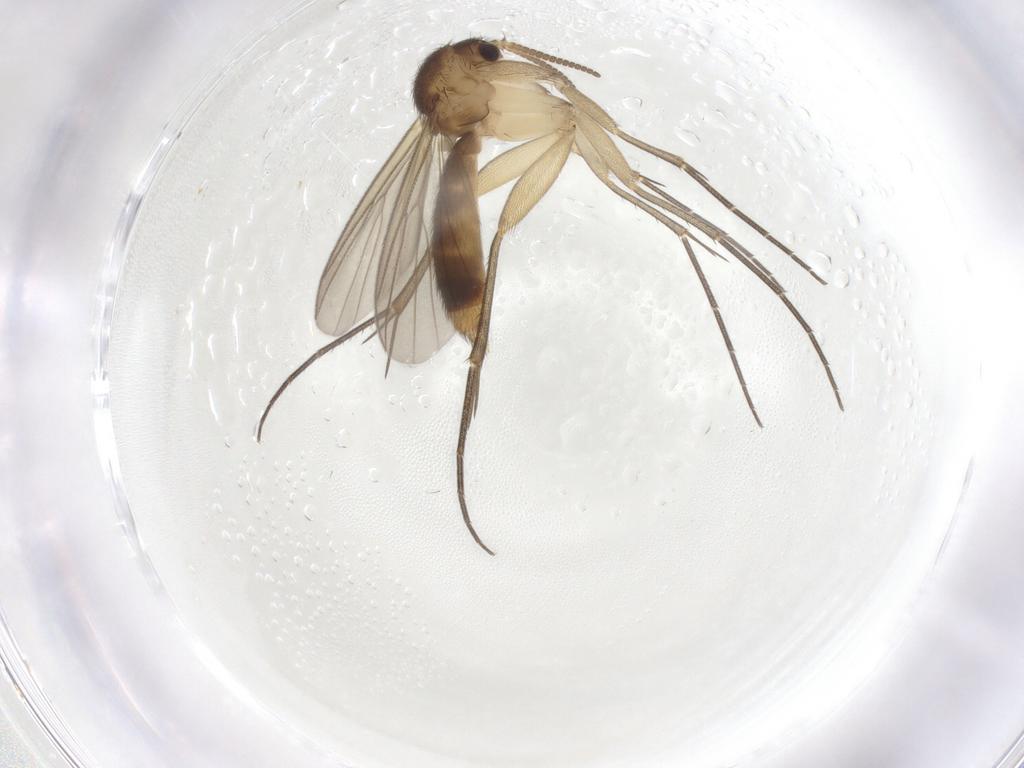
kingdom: Animalia
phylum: Arthropoda
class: Insecta
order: Diptera
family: Mycetophilidae
